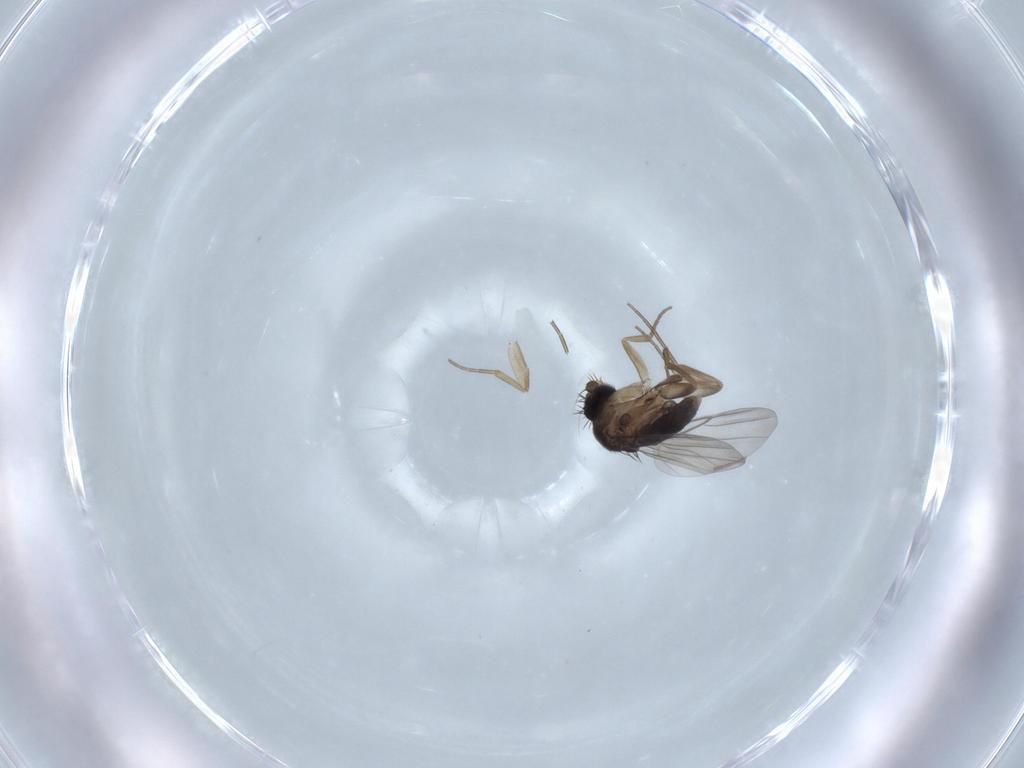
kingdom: Animalia
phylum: Arthropoda
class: Insecta
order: Diptera
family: Phoridae
